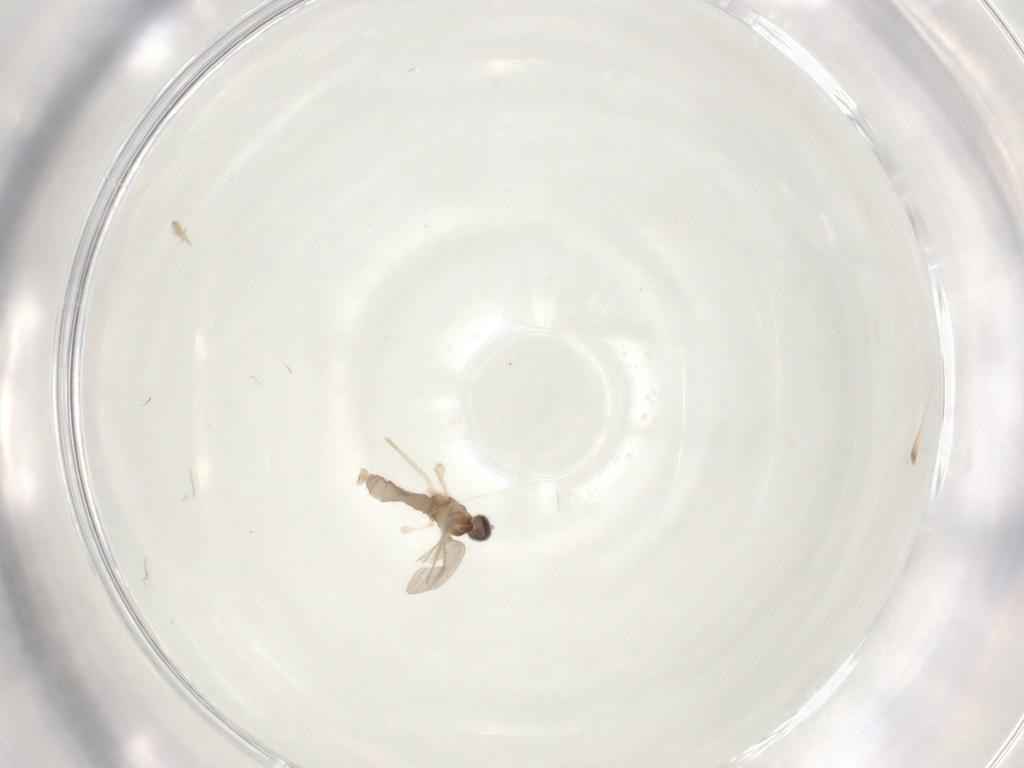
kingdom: Animalia
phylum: Arthropoda
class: Insecta
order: Diptera
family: Cecidomyiidae
